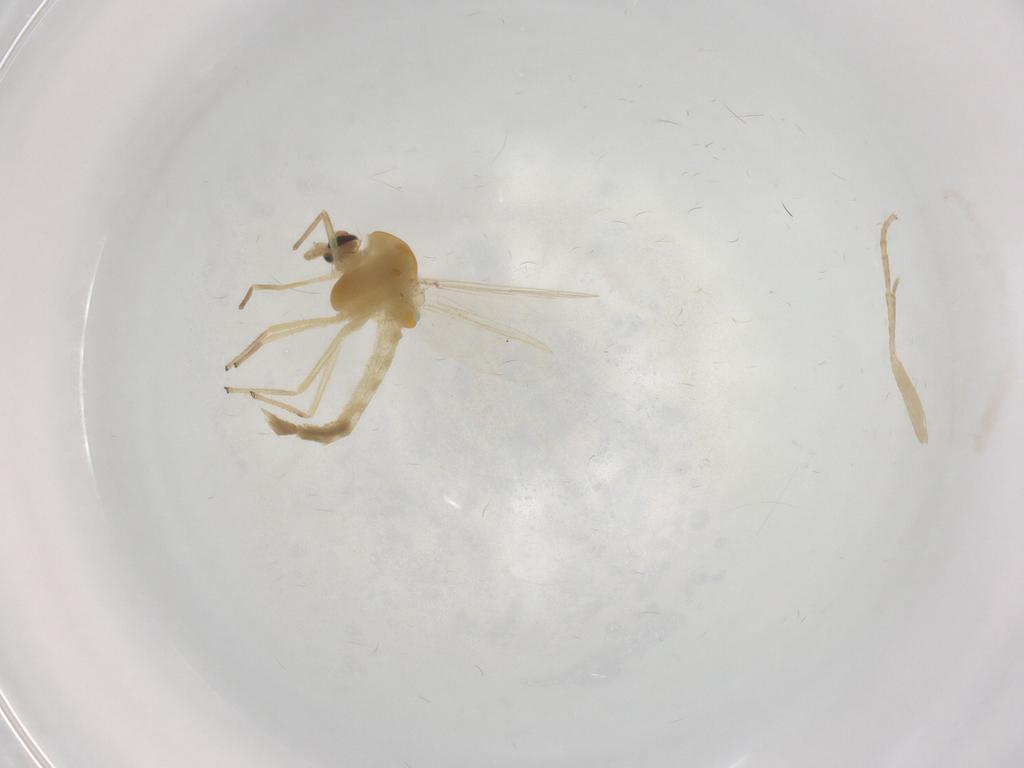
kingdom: Animalia
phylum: Arthropoda
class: Insecta
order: Diptera
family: Chironomidae
